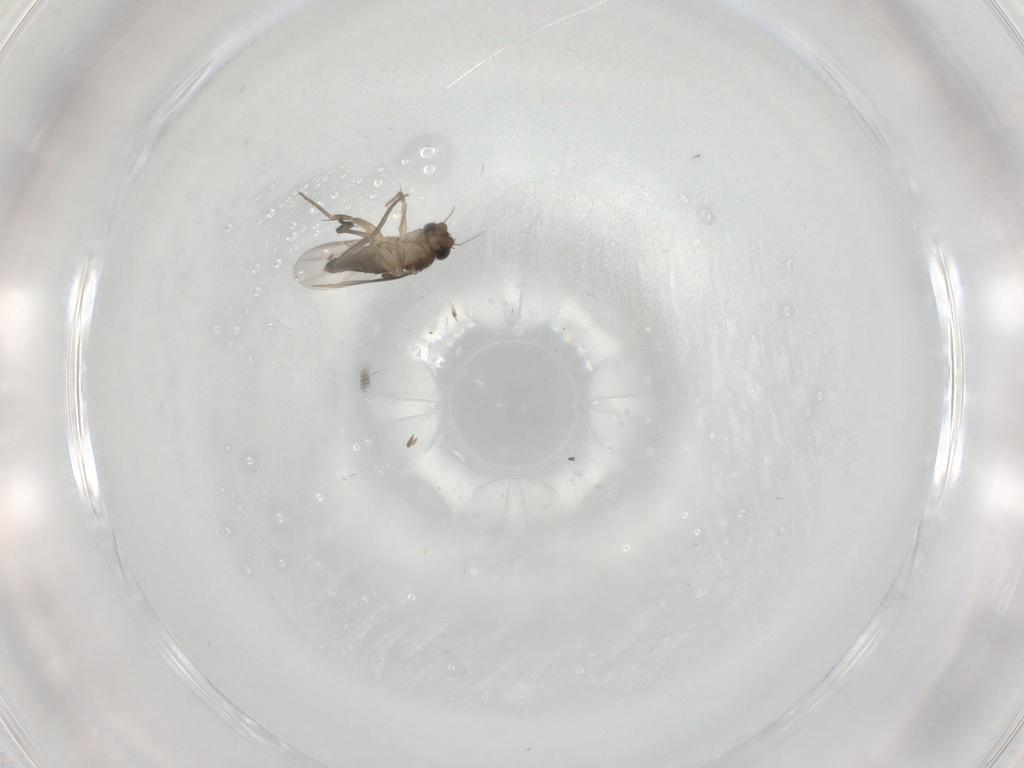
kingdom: Animalia
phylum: Arthropoda
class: Insecta
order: Diptera
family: Phoridae
